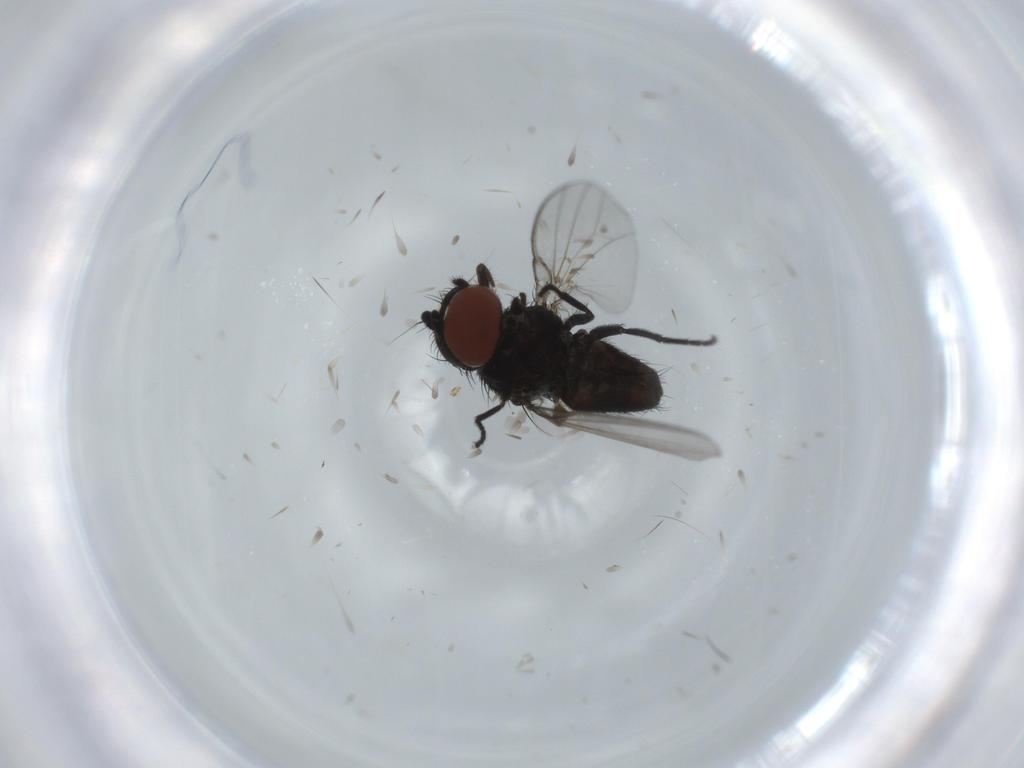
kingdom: Animalia
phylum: Arthropoda
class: Insecta
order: Diptera
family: Milichiidae
